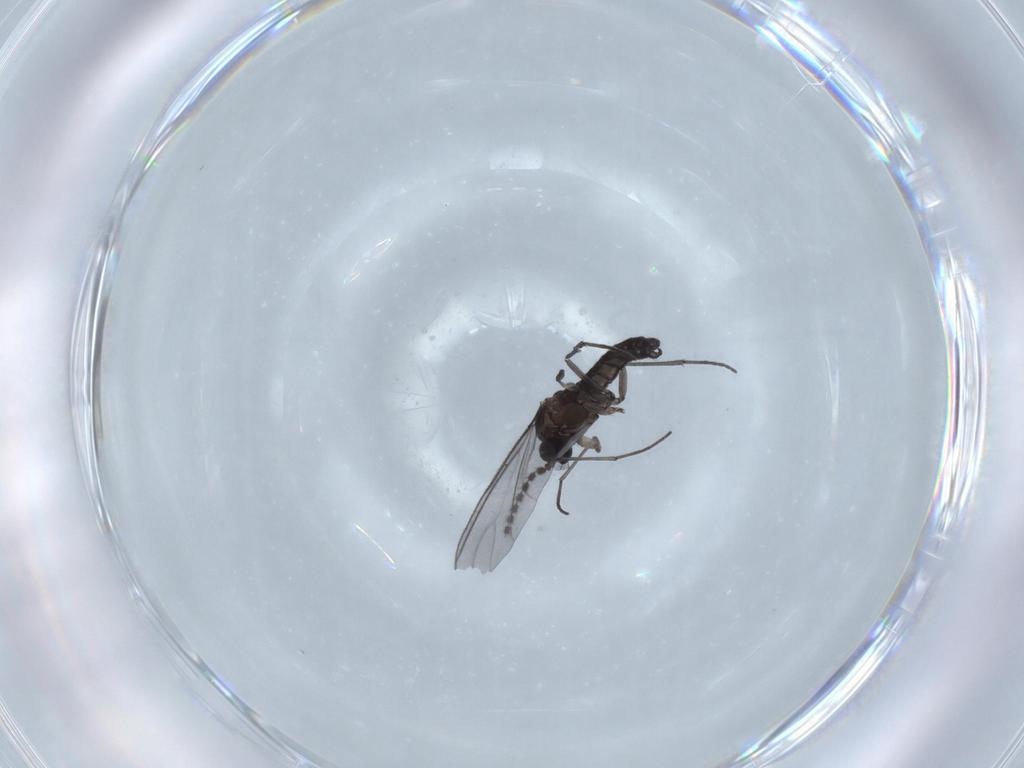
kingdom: Animalia
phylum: Arthropoda
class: Insecta
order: Diptera
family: Sciaridae
